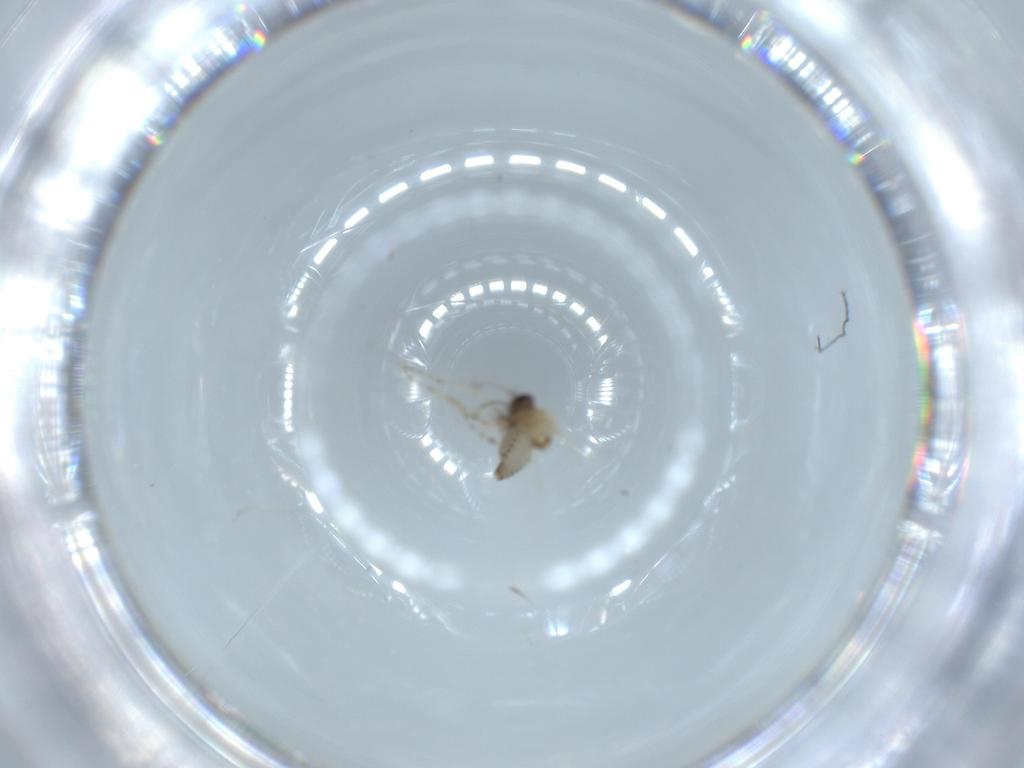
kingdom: Animalia
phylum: Arthropoda
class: Insecta
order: Diptera
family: Ceratopogonidae
